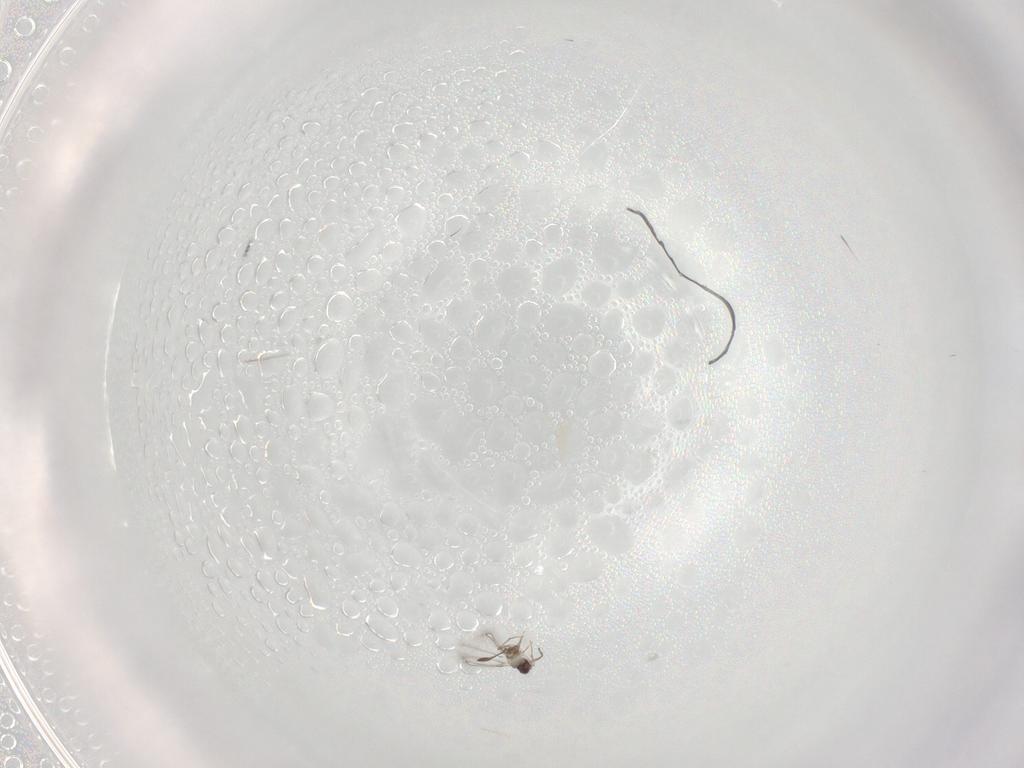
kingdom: Animalia
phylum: Arthropoda
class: Insecta
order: Hymenoptera
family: Mymaridae
